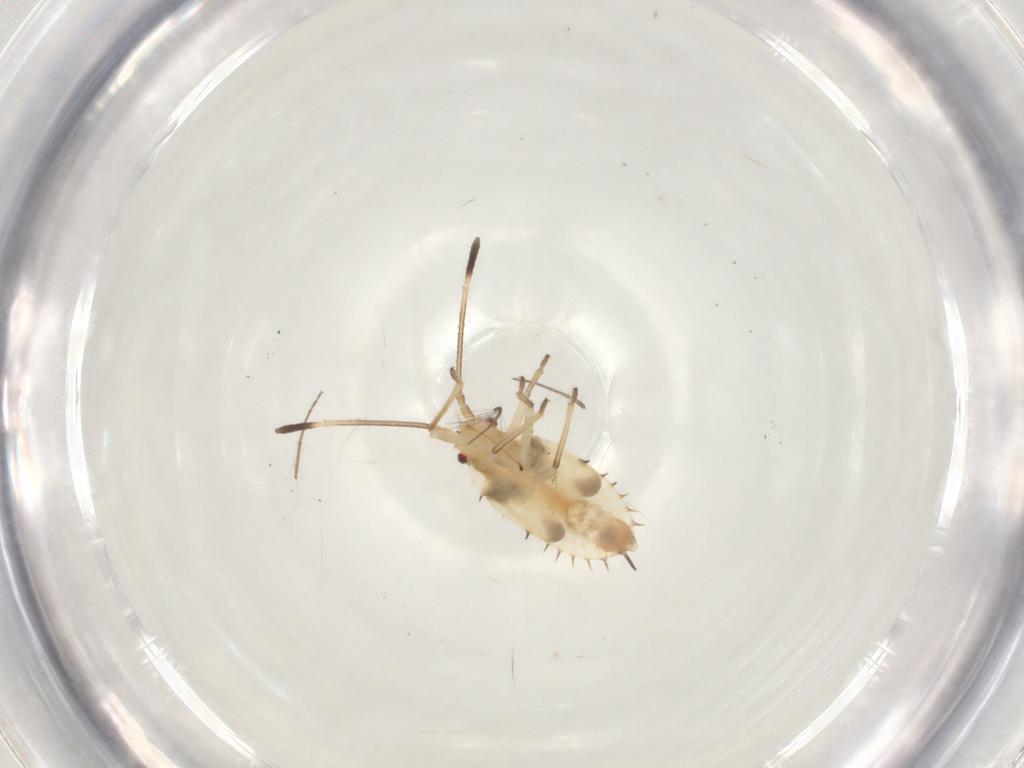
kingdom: Animalia
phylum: Arthropoda
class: Insecta
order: Hemiptera
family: Tingidae
